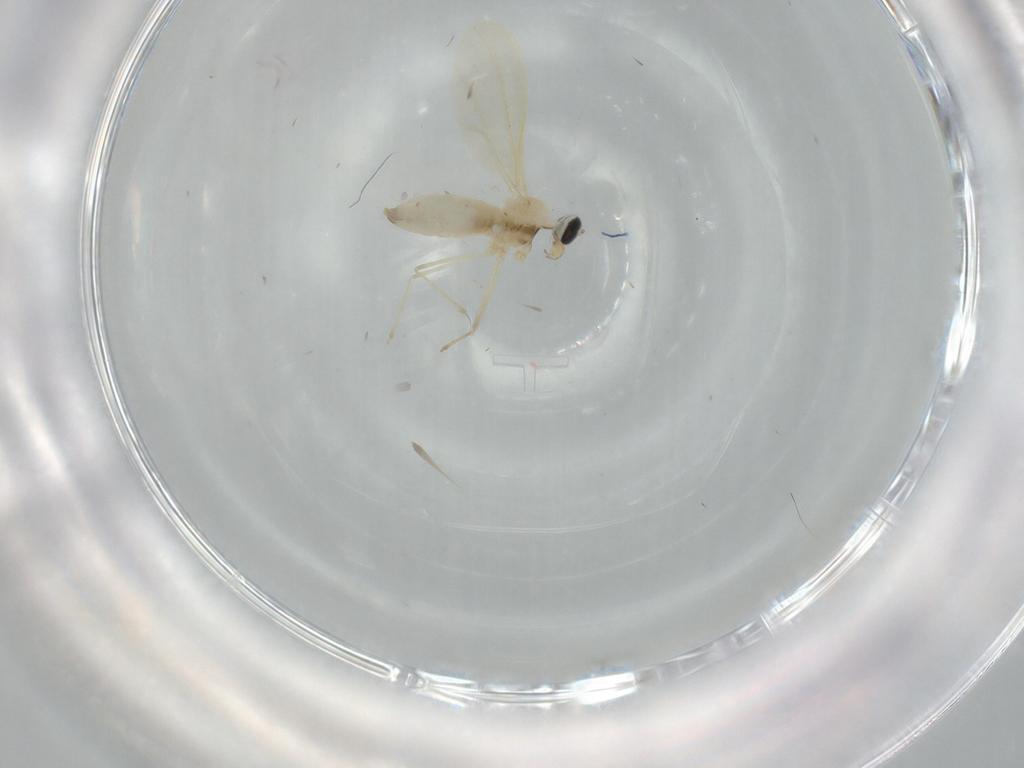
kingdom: Animalia
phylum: Arthropoda
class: Insecta
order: Diptera
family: Cecidomyiidae
